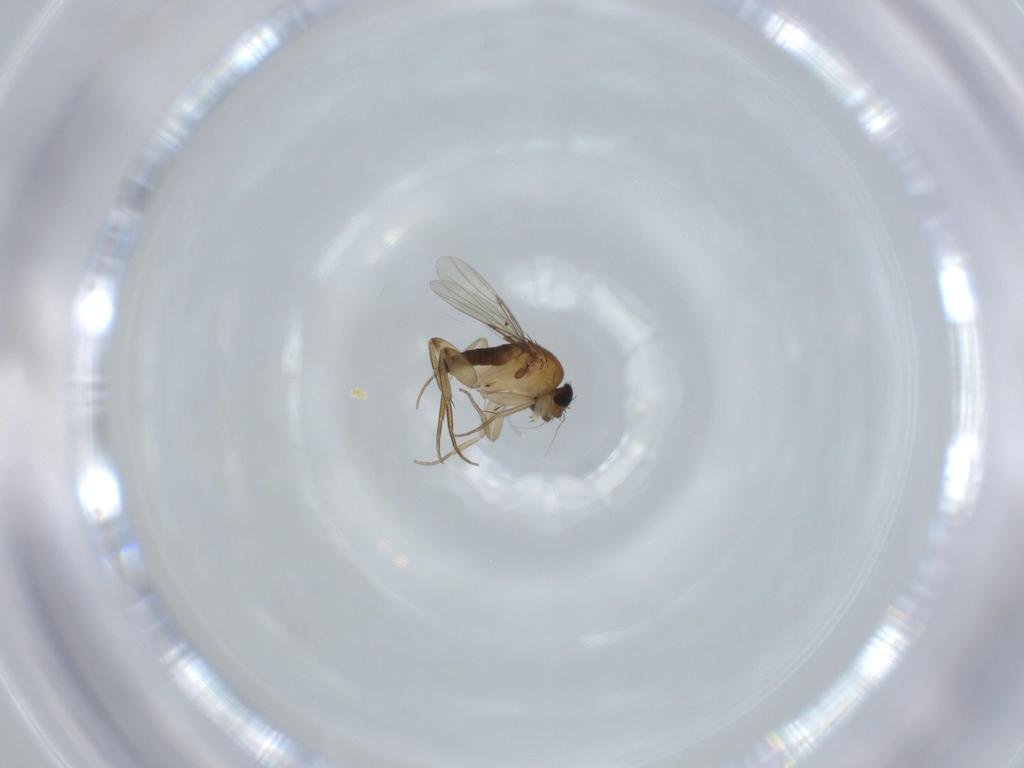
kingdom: Animalia
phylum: Arthropoda
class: Insecta
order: Diptera
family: Phoridae
